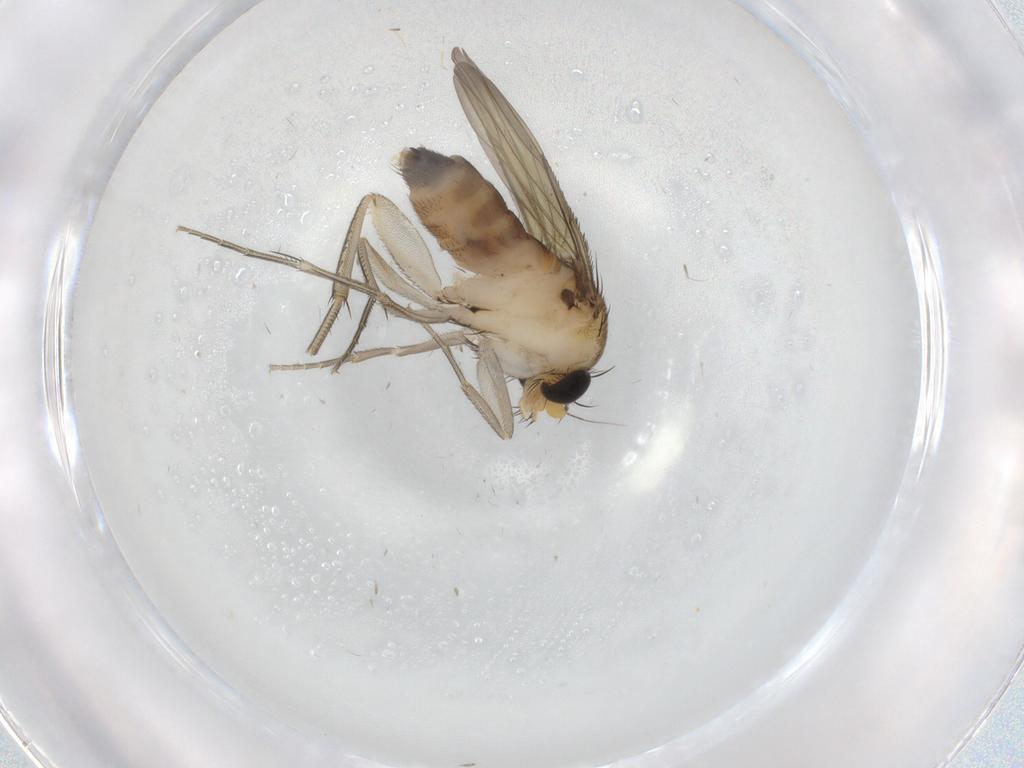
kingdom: Animalia
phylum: Arthropoda
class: Insecta
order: Diptera
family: Phoridae
